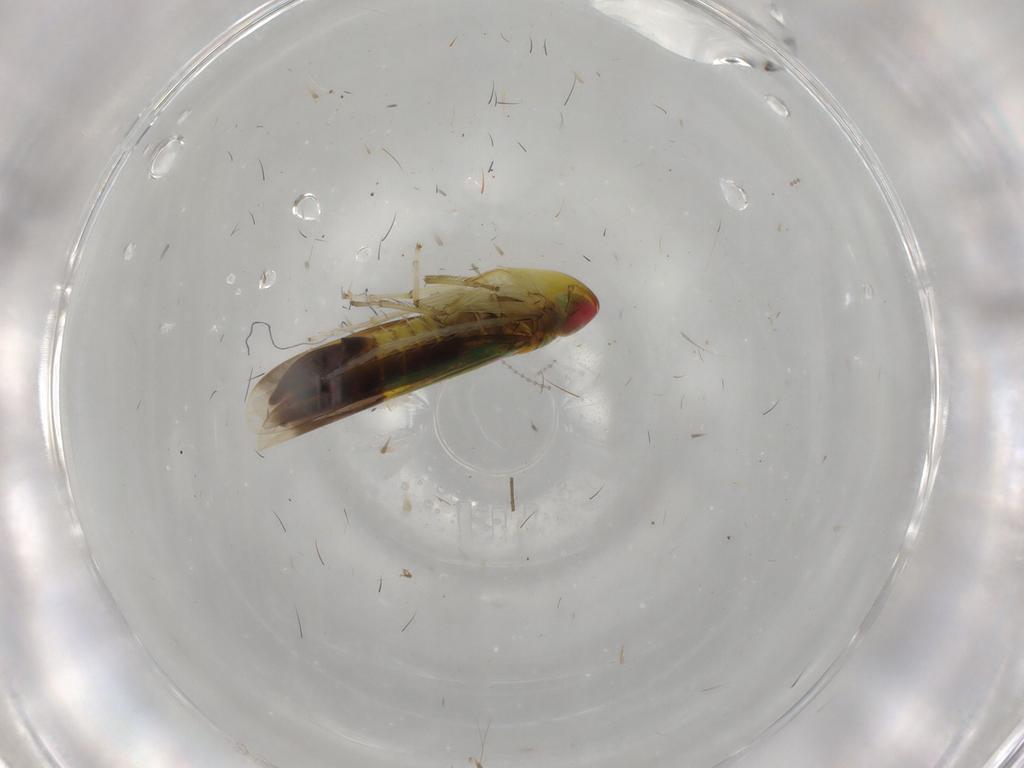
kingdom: Animalia
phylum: Arthropoda
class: Insecta
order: Hemiptera
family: Cicadellidae
